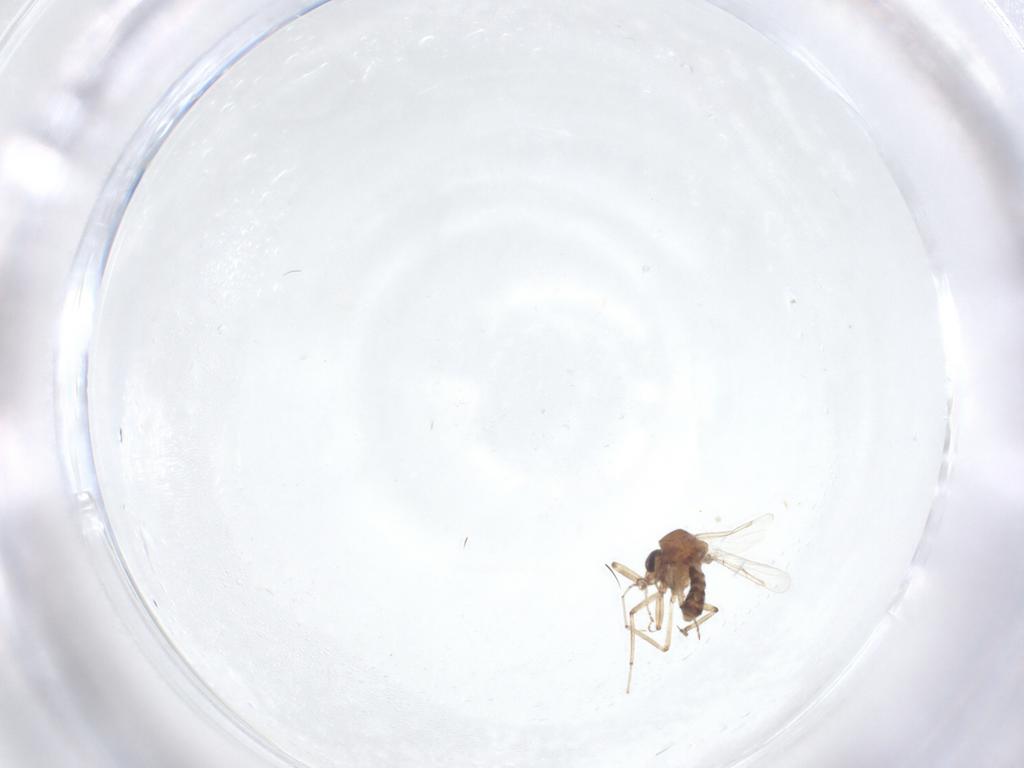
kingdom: Animalia
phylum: Arthropoda
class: Insecta
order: Diptera
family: Ceratopogonidae
